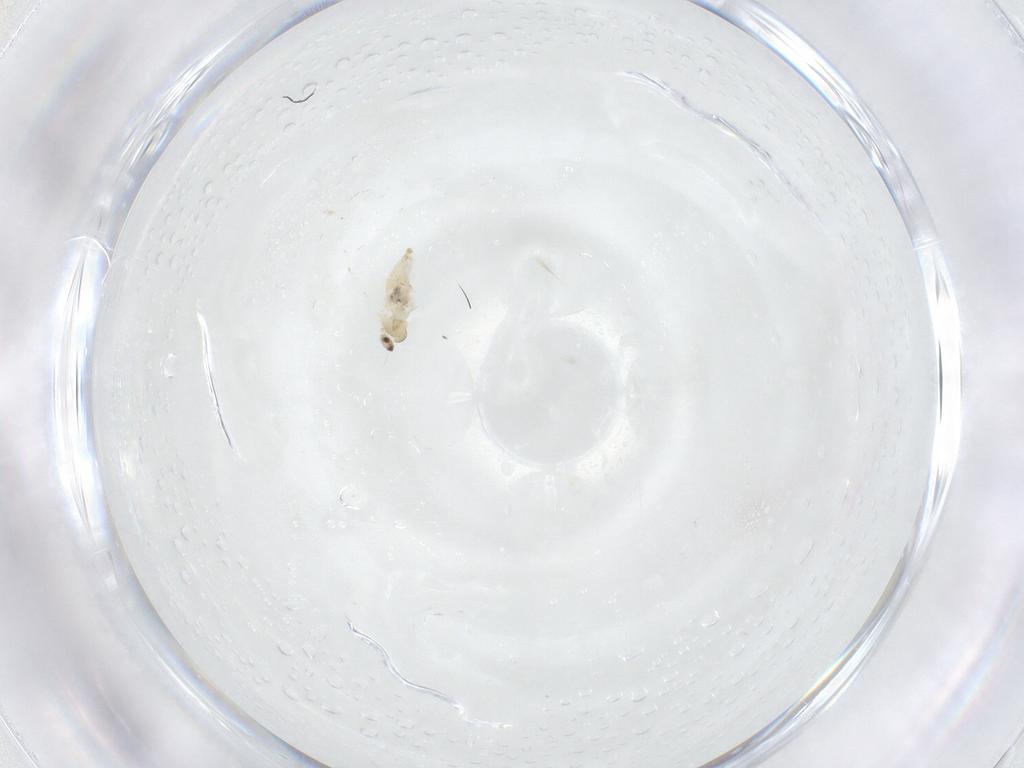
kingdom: Animalia
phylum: Arthropoda
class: Insecta
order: Diptera
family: Cecidomyiidae
